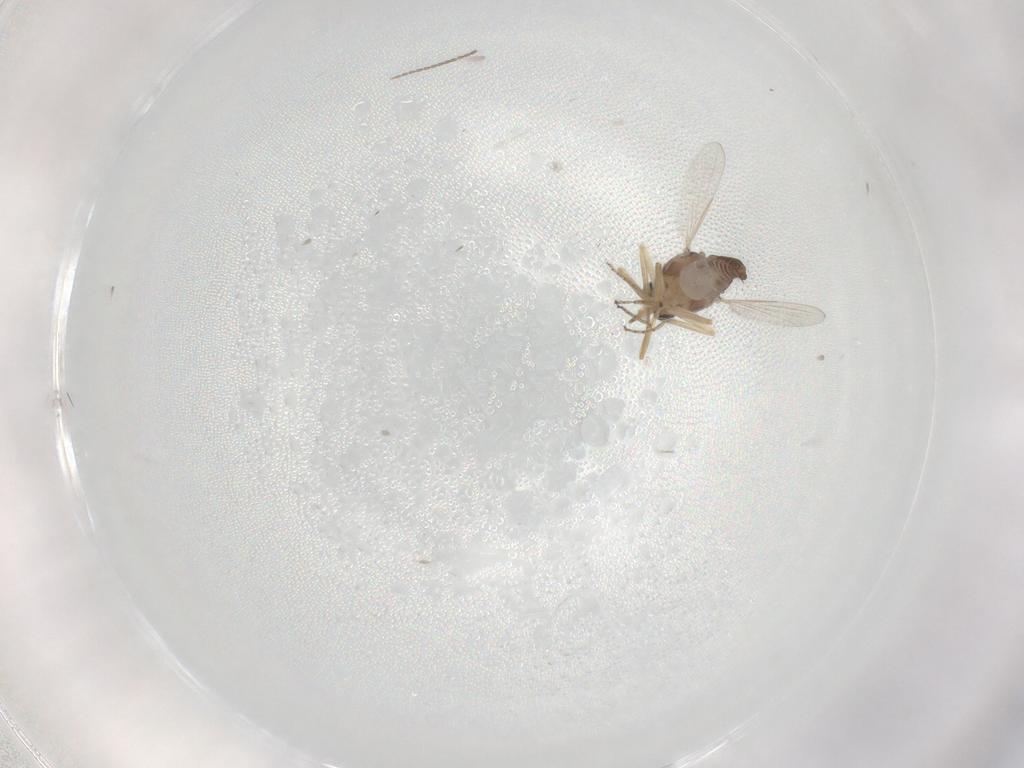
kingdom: Animalia
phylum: Arthropoda
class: Insecta
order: Diptera
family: Ceratopogonidae
